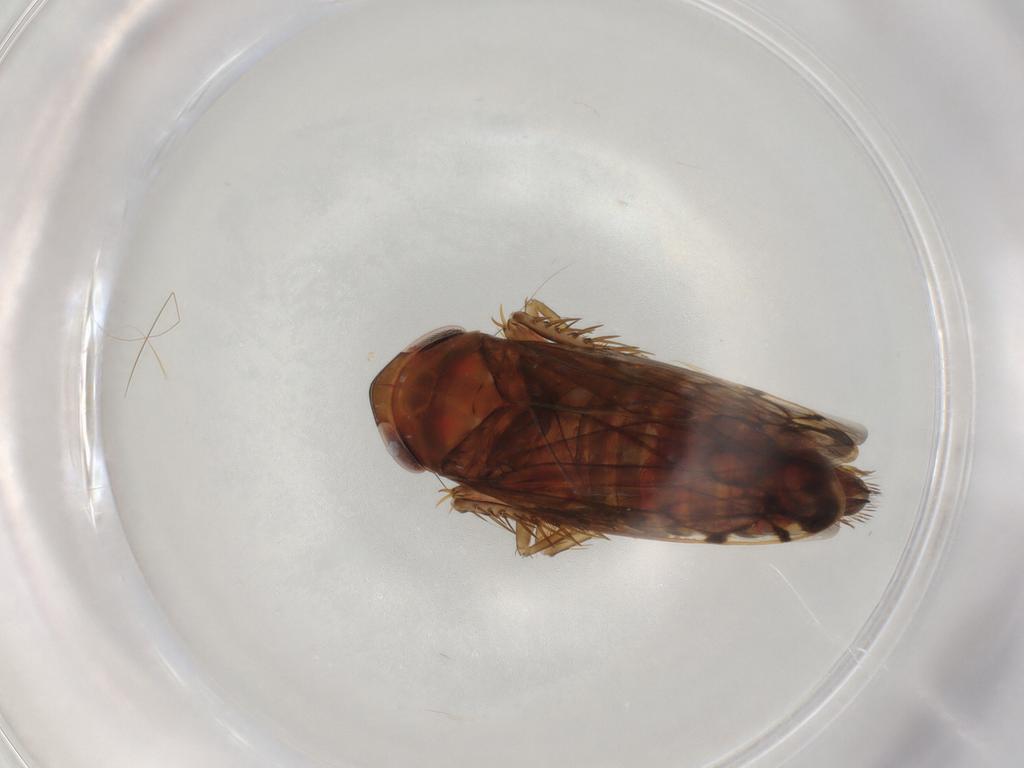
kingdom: Animalia
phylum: Arthropoda
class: Insecta
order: Hemiptera
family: Cicadellidae
